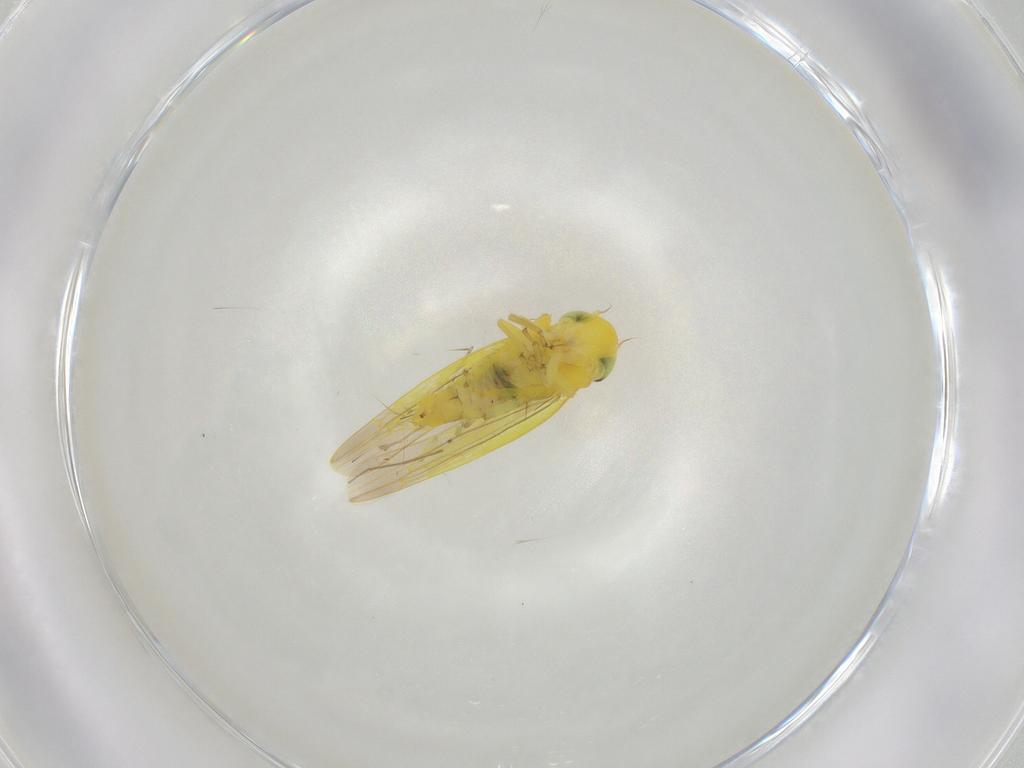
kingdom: Animalia
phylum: Arthropoda
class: Insecta
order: Hemiptera
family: Cicadellidae
